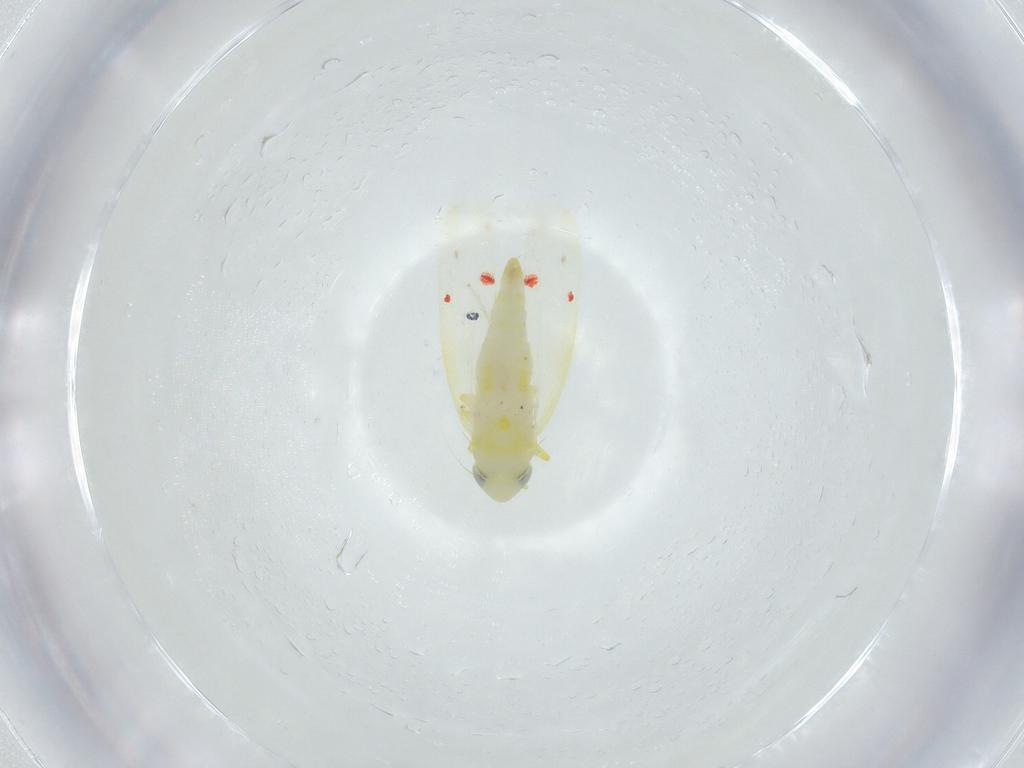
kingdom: Animalia
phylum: Arthropoda
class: Insecta
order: Hemiptera
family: Cicadellidae
